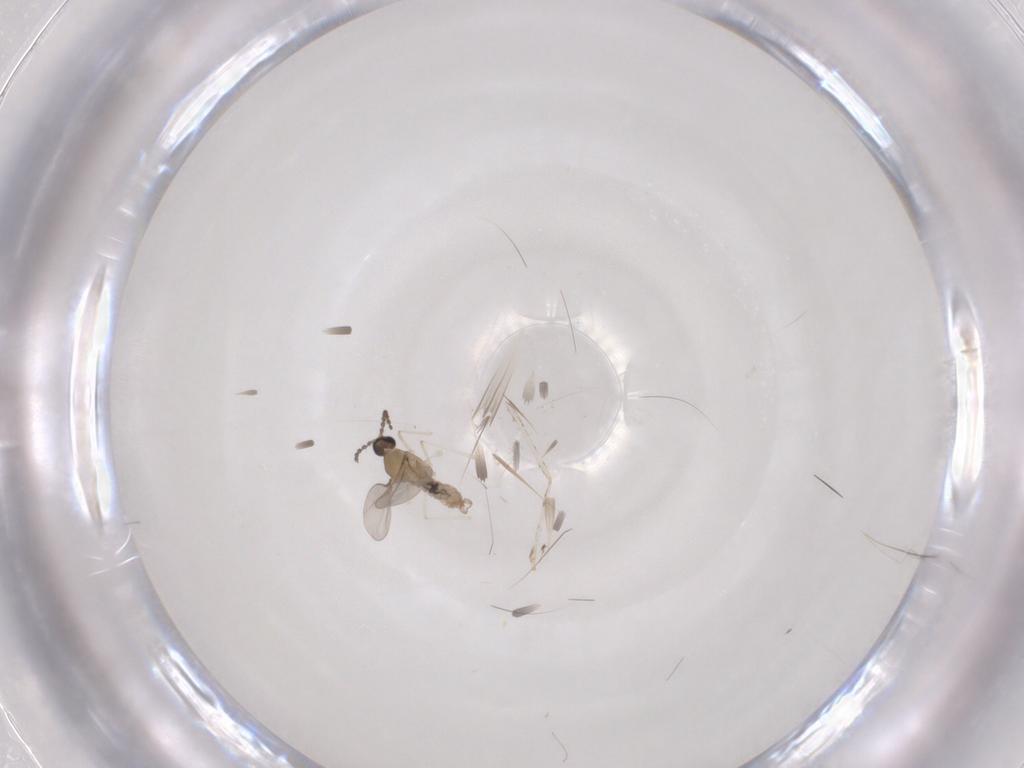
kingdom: Animalia
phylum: Arthropoda
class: Insecta
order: Diptera
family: Cecidomyiidae
